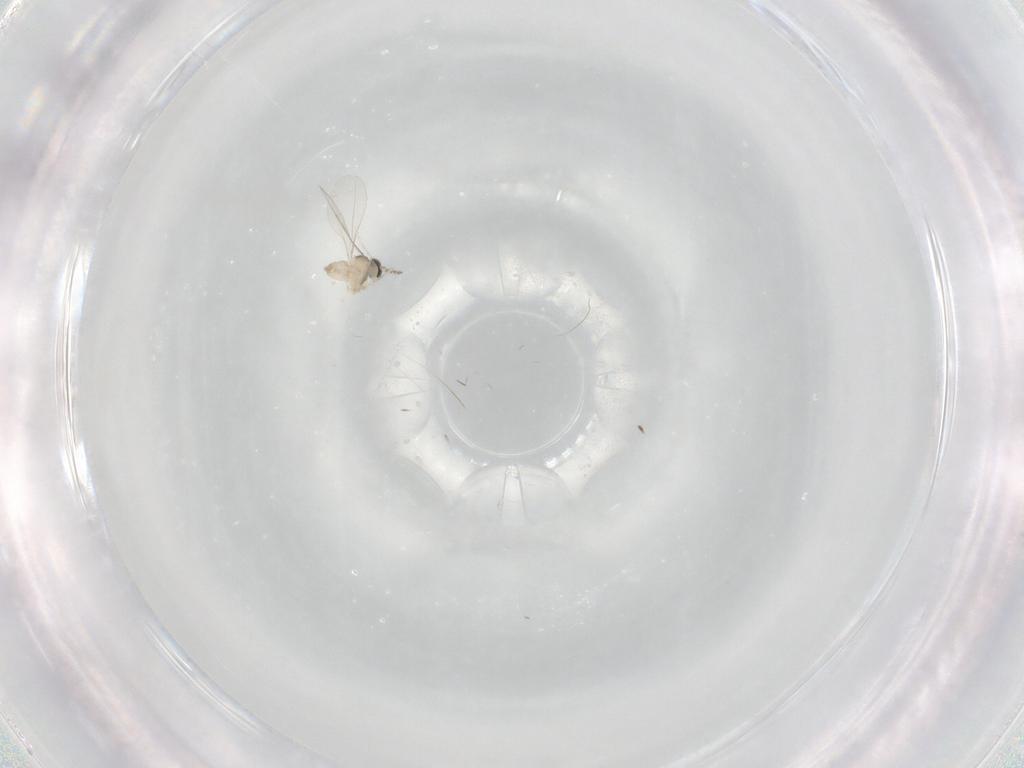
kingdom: Animalia
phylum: Arthropoda
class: Insecta
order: Diptera
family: Cecidomyiidae
